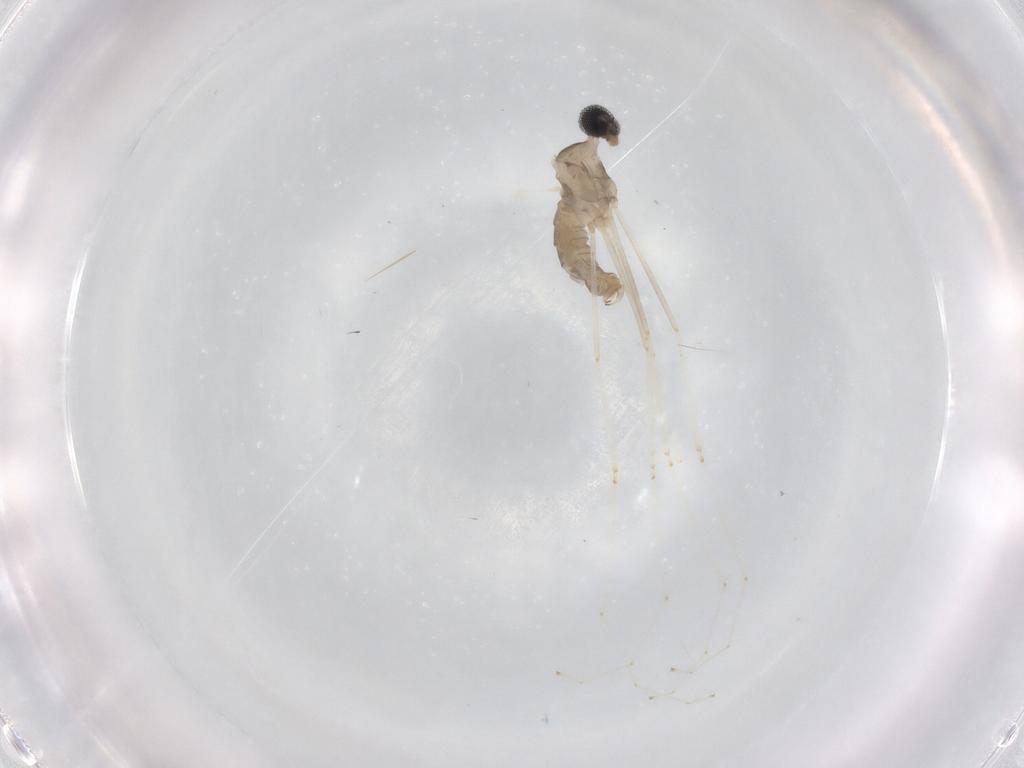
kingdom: Animalia
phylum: Arthropoda
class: Insecta
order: Diptera
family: Cecidomyiidae
